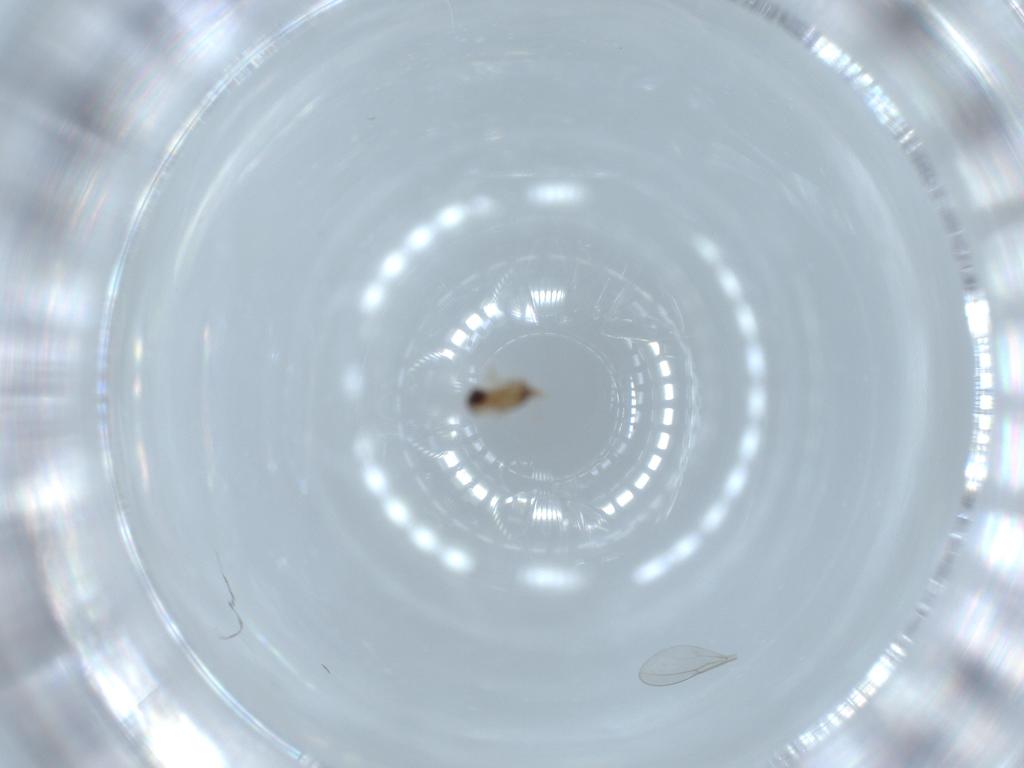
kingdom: Animalia
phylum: Arthropoda
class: Insecta
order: Diptera
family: Cecidomyiidae
